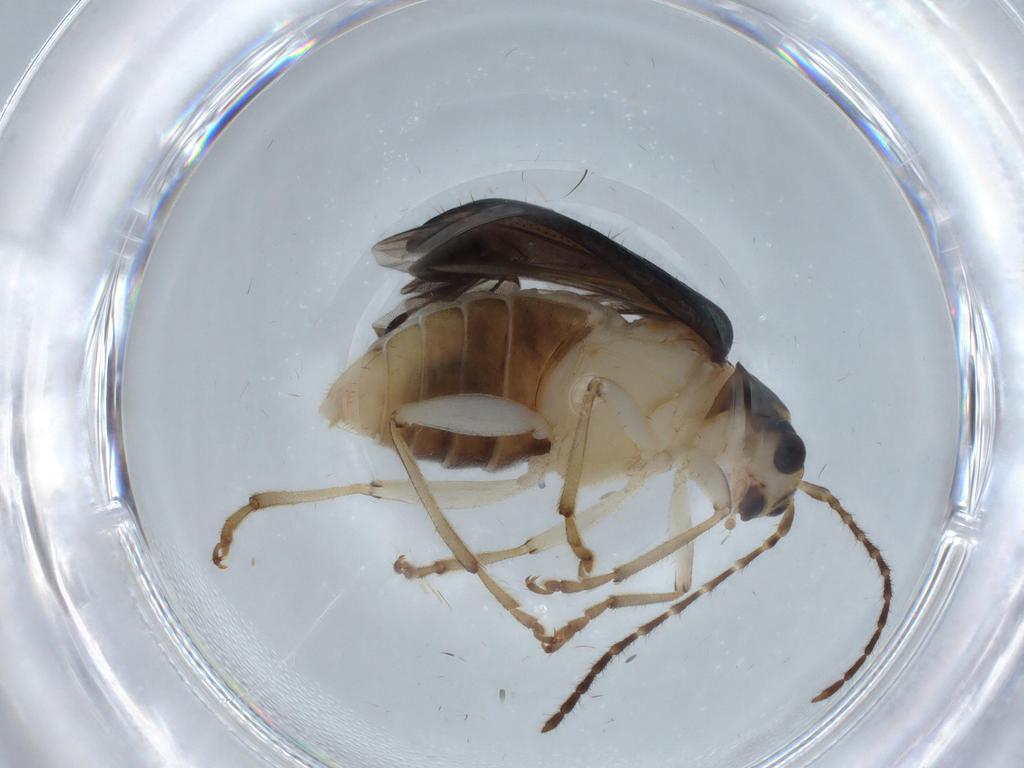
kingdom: Animalia
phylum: Arthropoda
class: Insecta
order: Coleoptera
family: Chrysomelidae
